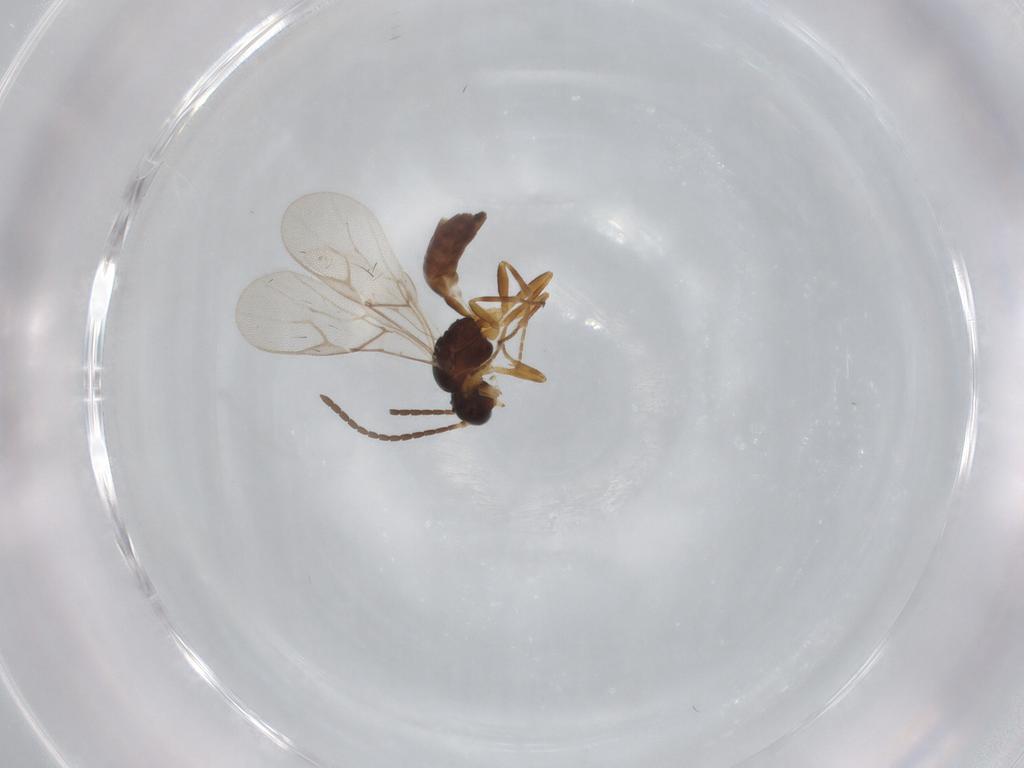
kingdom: Animalia
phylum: Arthropoda
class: Insecta
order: Hymenoptera
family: Braconidae
